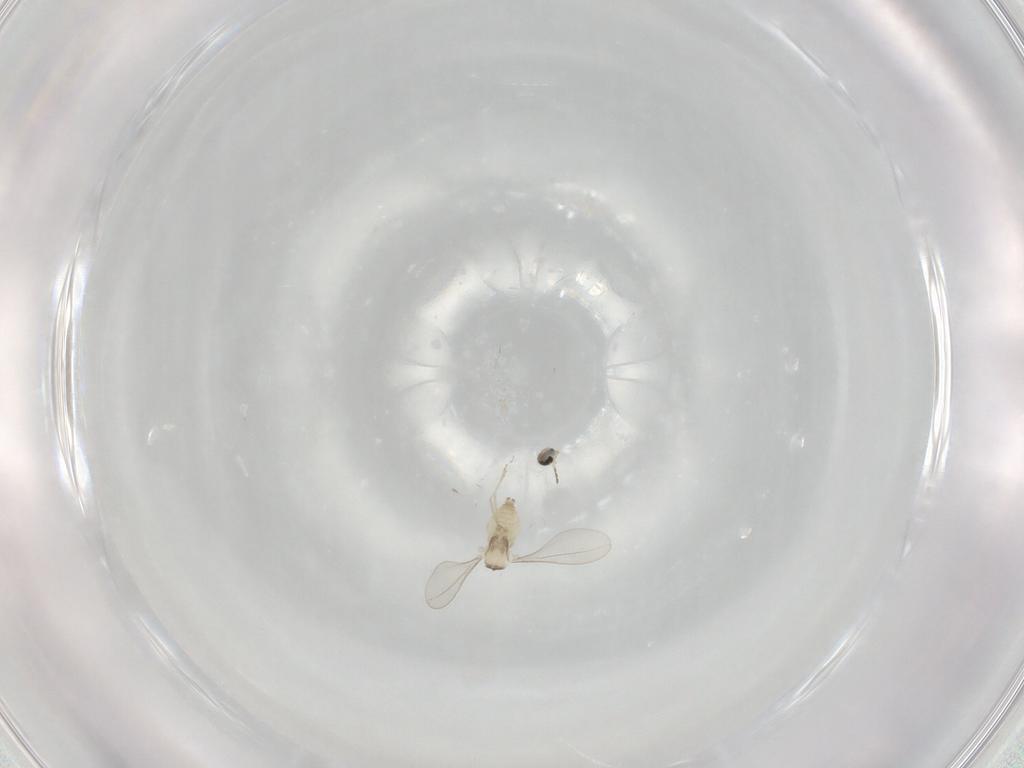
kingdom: Animalia
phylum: Arthropoda
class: Insecta
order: Diptera
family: Cecidomyiidae
